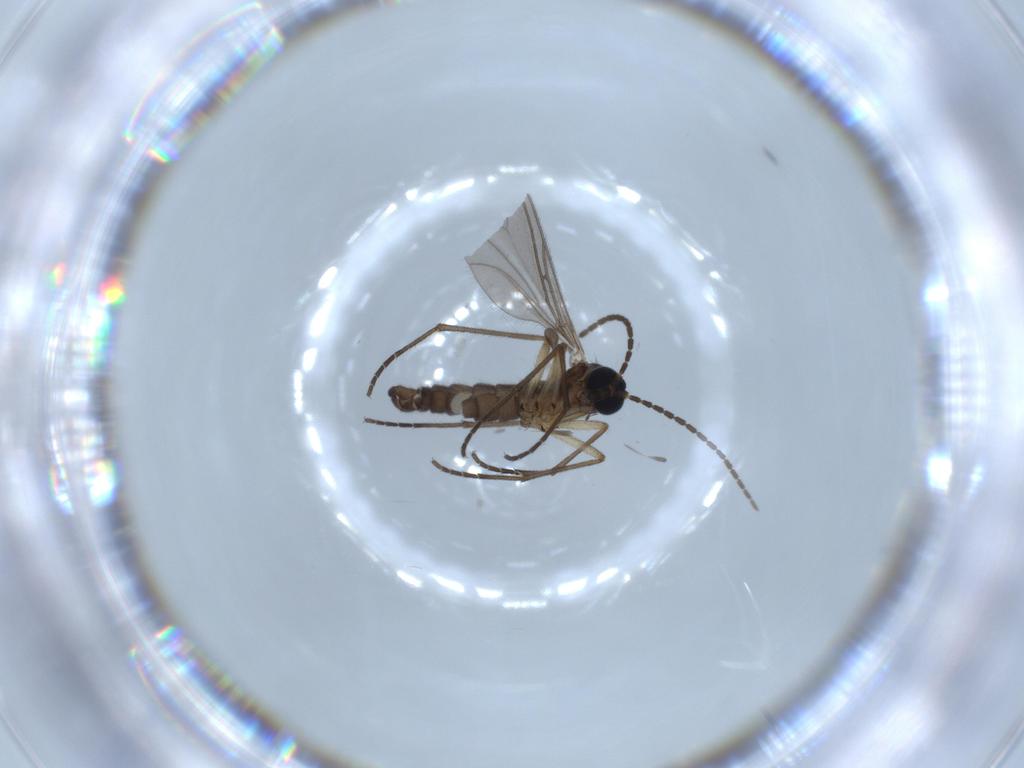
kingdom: Animalia
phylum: Arthropoda
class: Insecta
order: Diptera
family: Sciaridae
